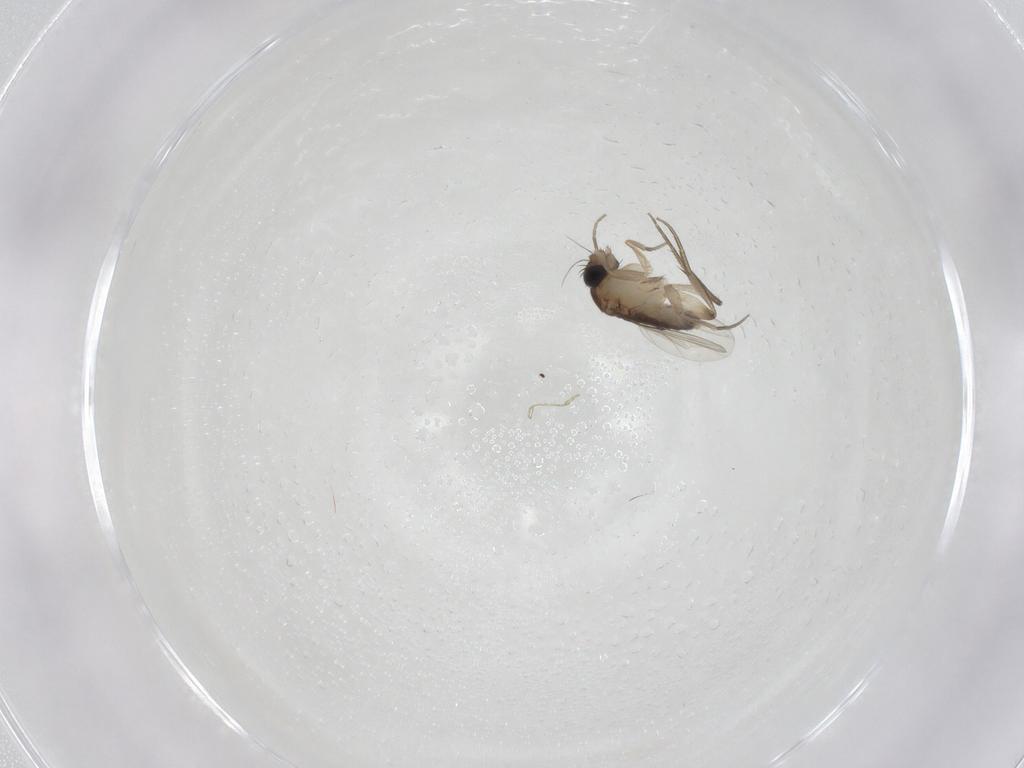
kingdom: Animalia
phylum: Arthropoda
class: Insecta
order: Diptera
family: Phoridae
